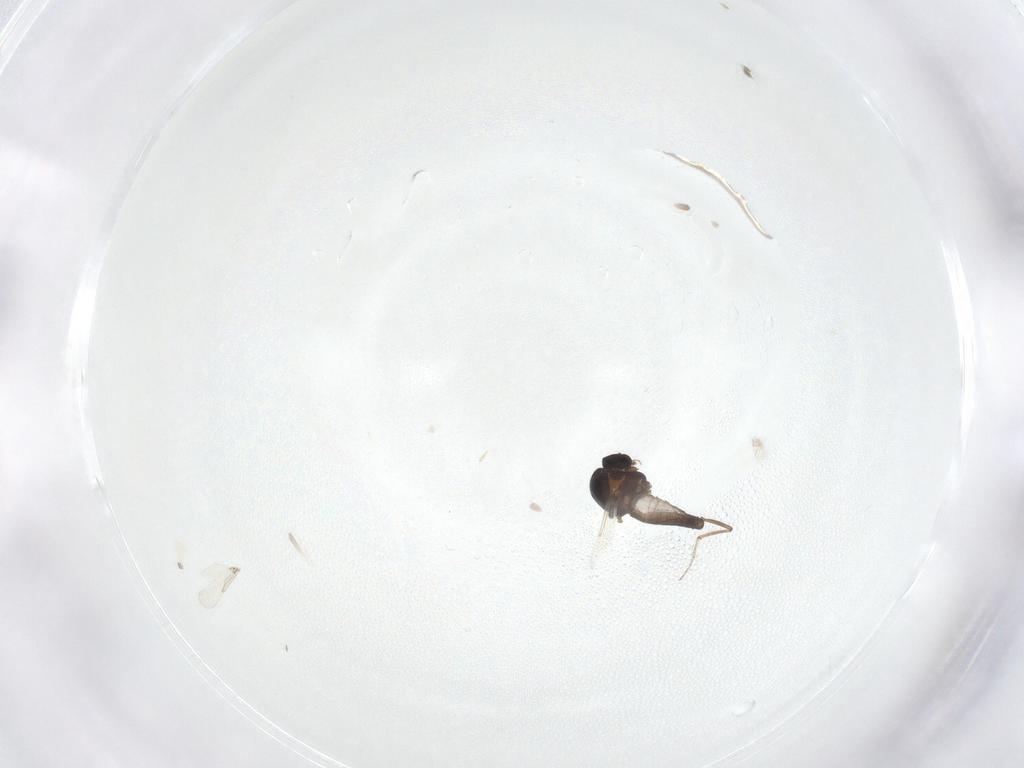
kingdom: Animalia
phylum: Arthropoda
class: Insecta
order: Diptera
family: Ceratopogonidae
